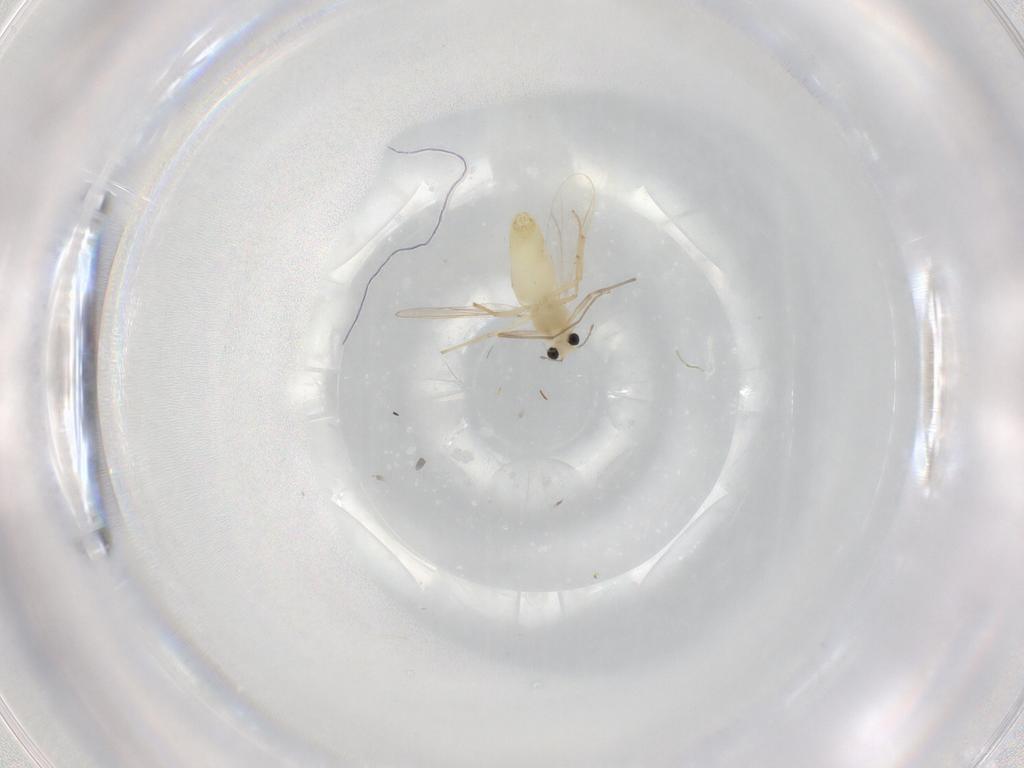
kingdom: Animalia
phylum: Arthropoda
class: Insecta
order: Diptera
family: Chironomidae
